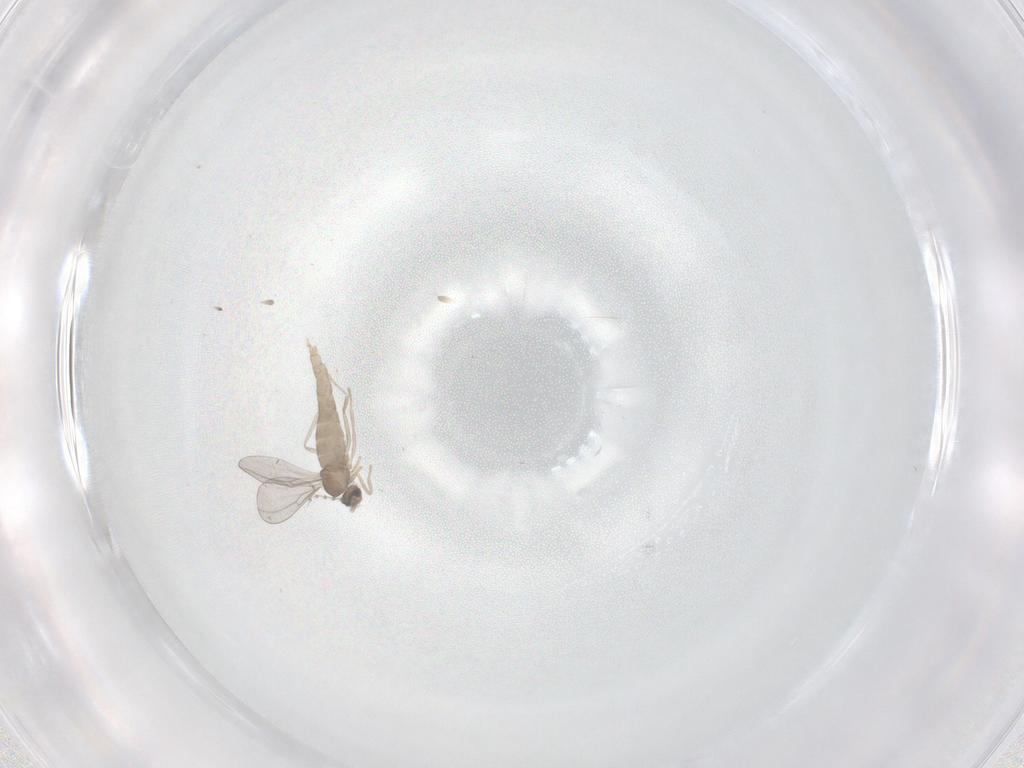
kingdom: Animalia
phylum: Arthropoda
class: Insecta
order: Diptera
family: Cecidomyiidae
